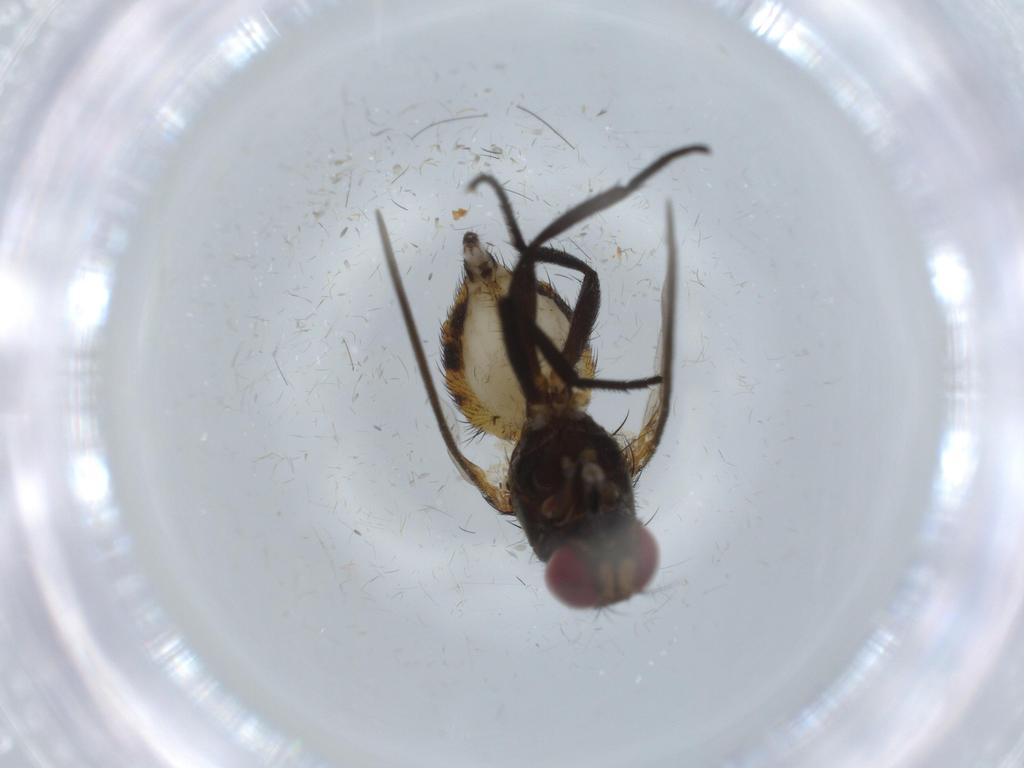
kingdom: Animalia
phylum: Arthropoda
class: Insecta
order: Diptera
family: Anthomyiidae
